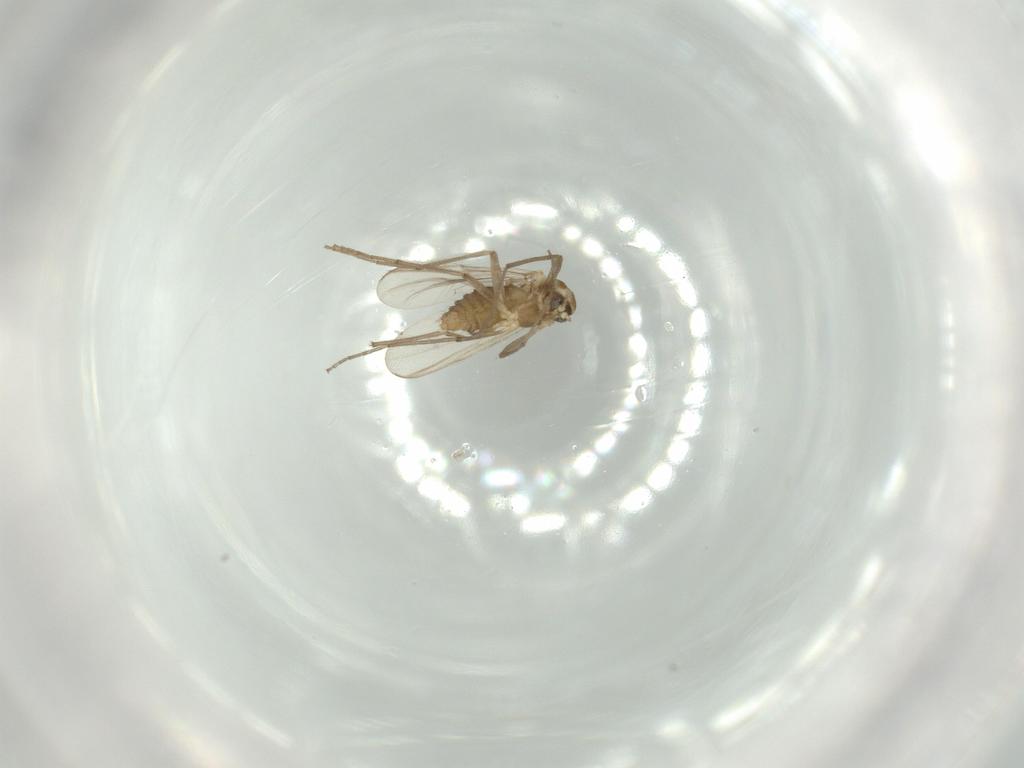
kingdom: Animalia
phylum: Arthropoda
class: Insecta
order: Diptera
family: Chironomidae
